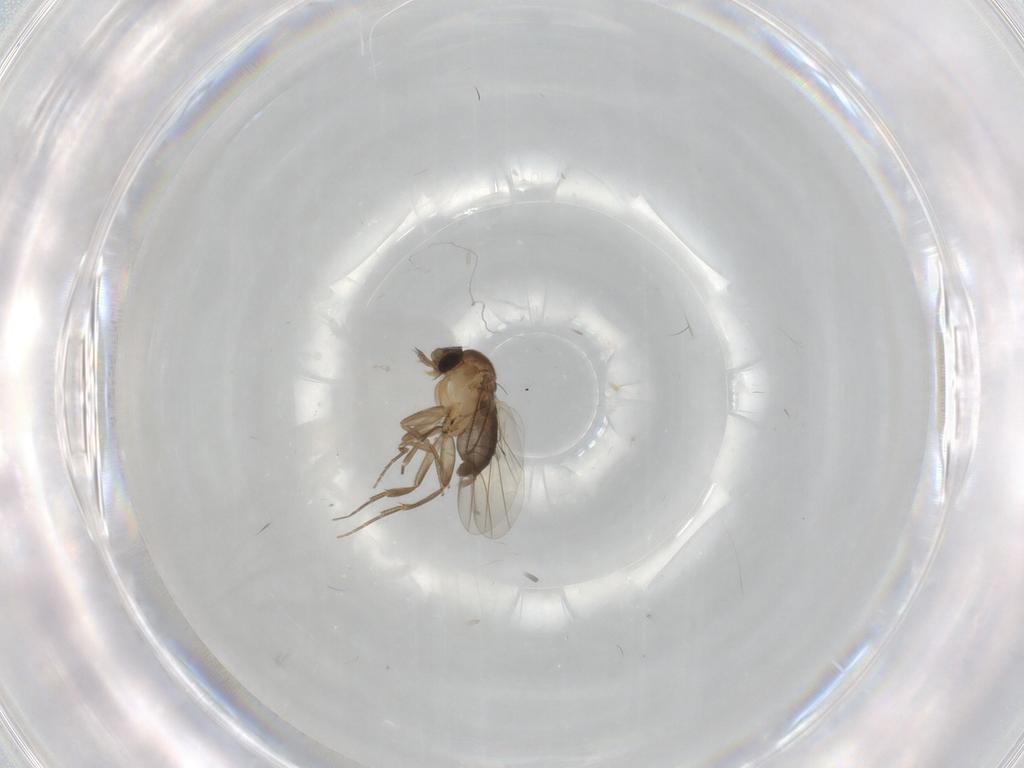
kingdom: Animalia
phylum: Arthropoda
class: Insecta
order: Diptera
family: Phoridae
